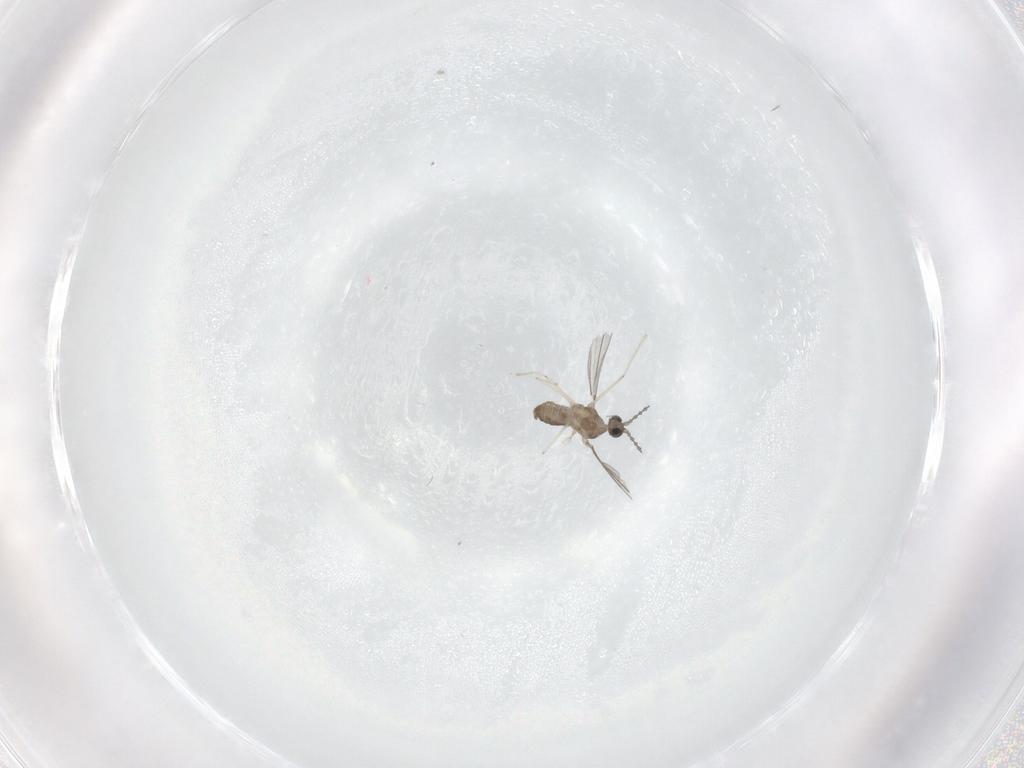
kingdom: Animalia
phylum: Arthropoda
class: Insecta
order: Diptera
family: Phoridae
